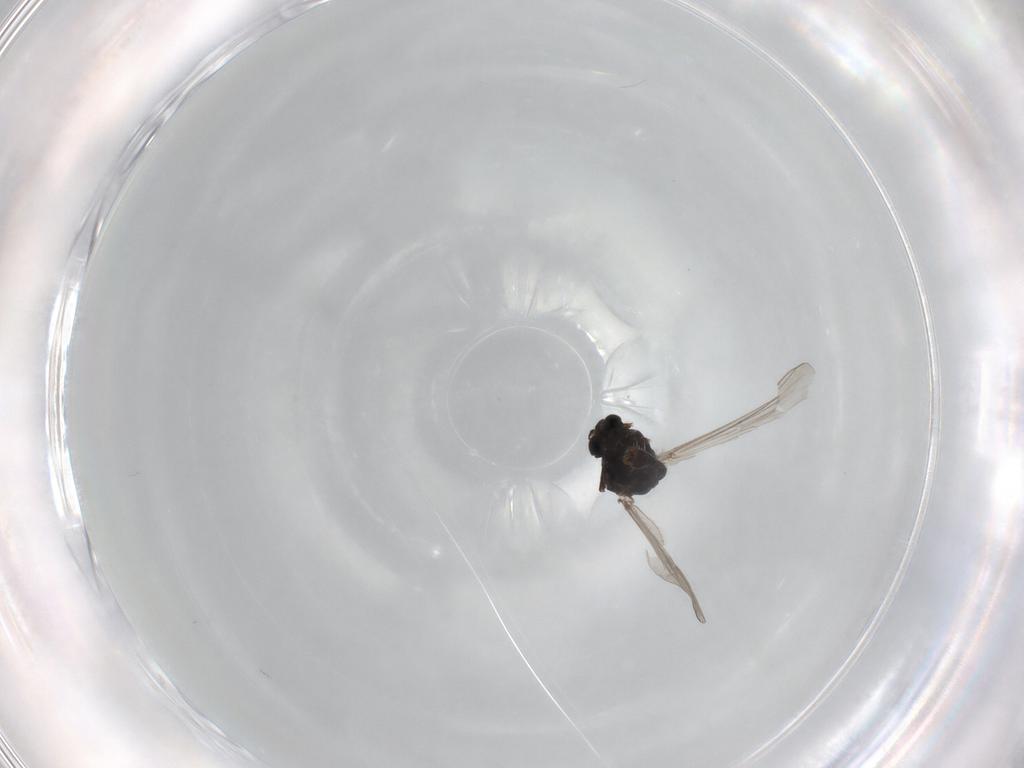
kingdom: Animalia
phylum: Arthropoda
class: Insecta
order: Diptera
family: Chironomidae
